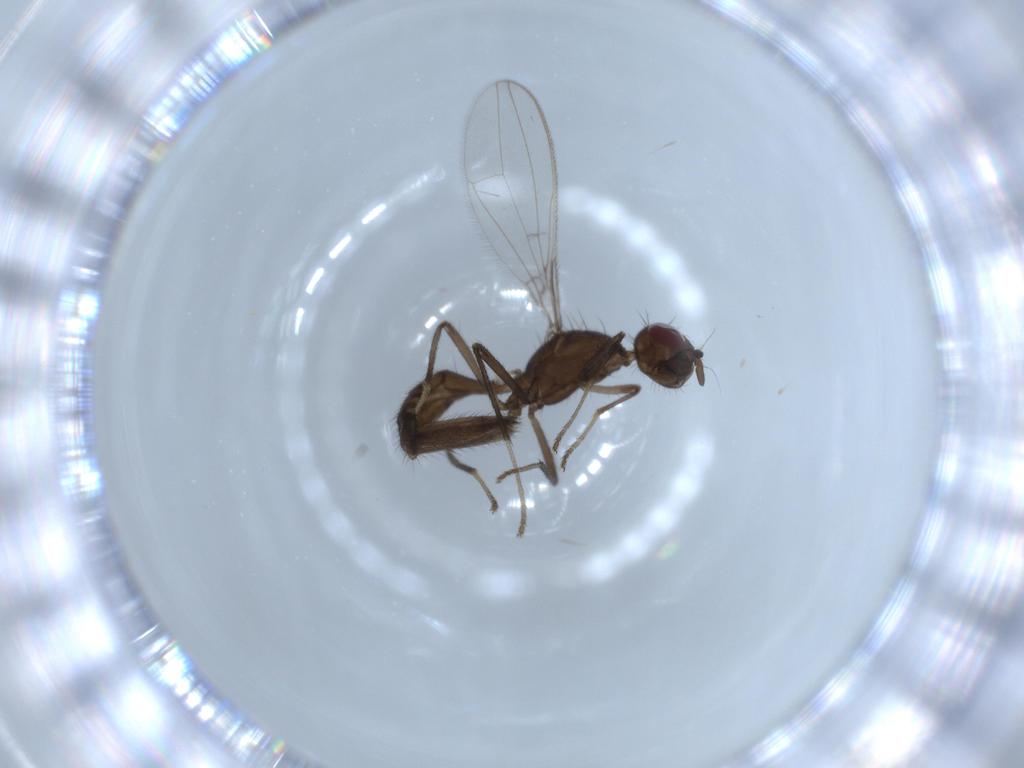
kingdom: Animalia
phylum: Arthropoda
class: Insecta
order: Diptera
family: Richardiidae
